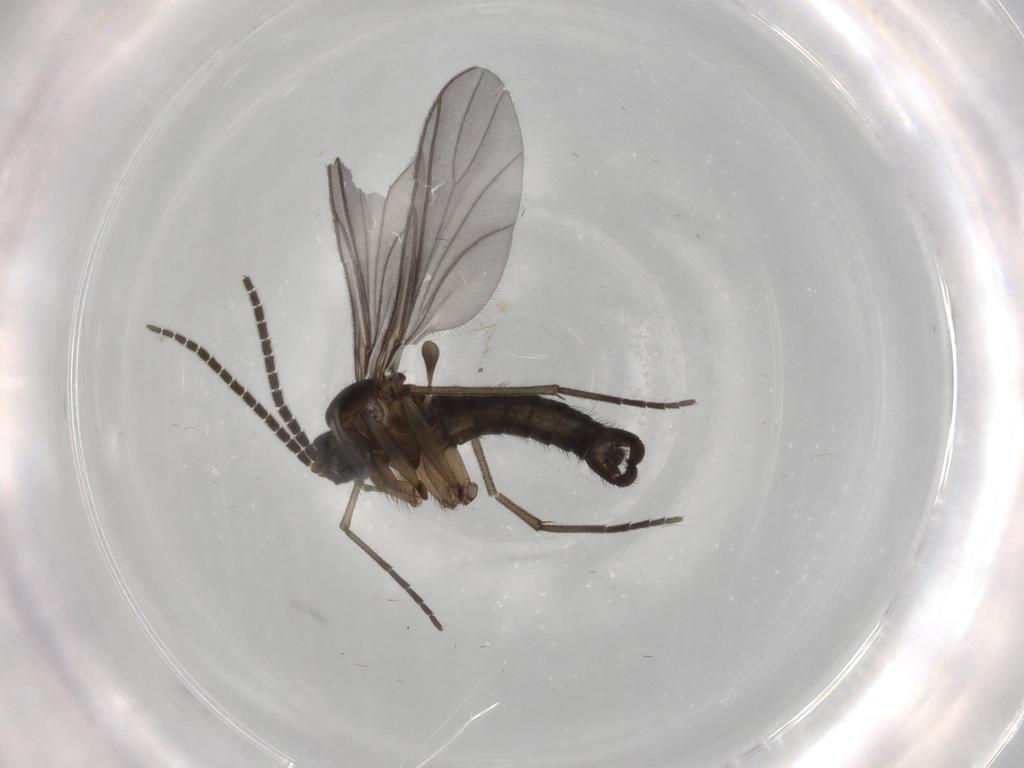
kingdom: Animalia
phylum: Arthropoda
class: Insecta
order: Diptera
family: Sciaridae
